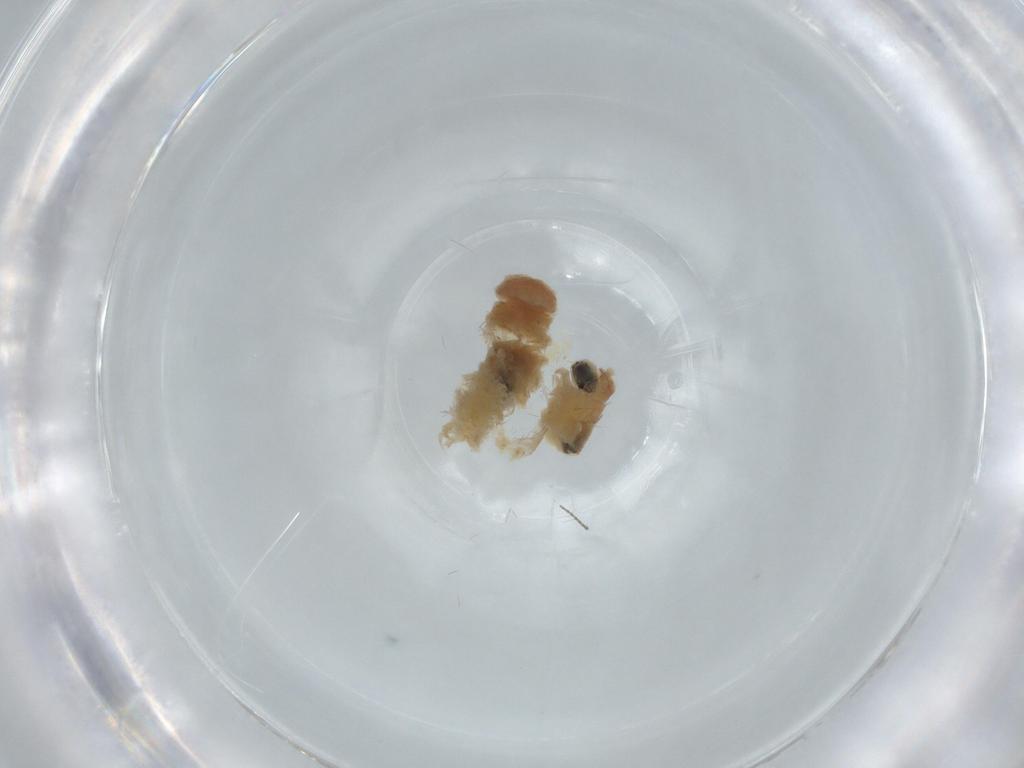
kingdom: Animalia
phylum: Arthropoda
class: Insecta
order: Coleoptera
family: Staphylinidae
